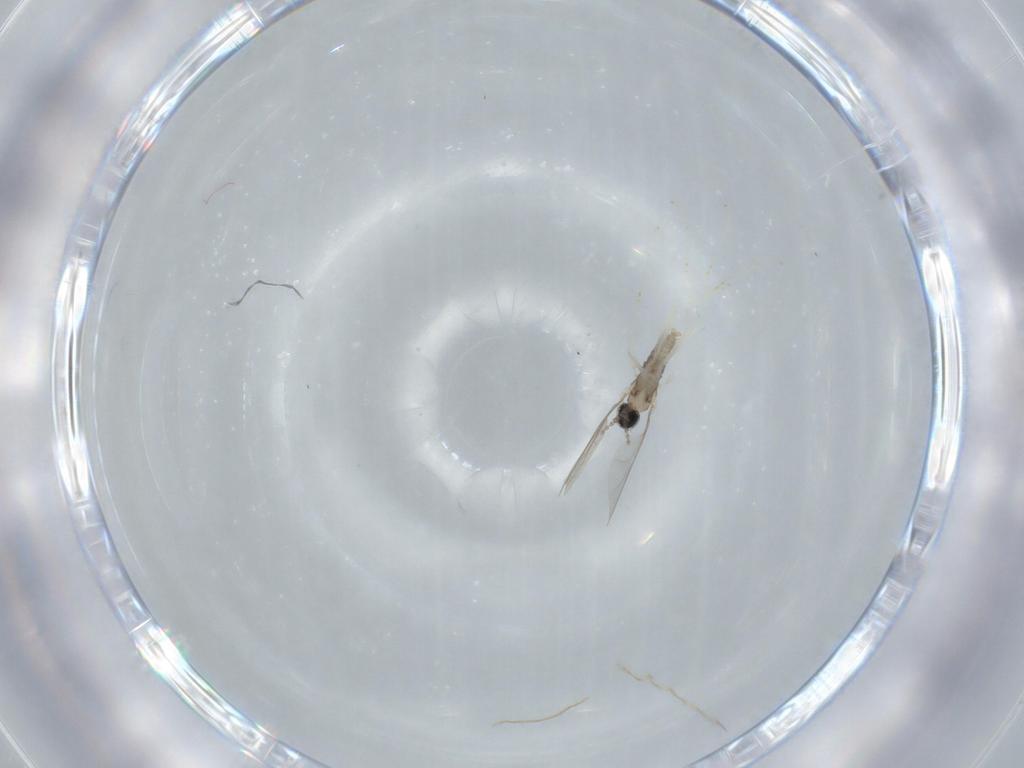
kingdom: Animalia
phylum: Arthropoda
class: Insecta
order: Diptera
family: Cecidomyiidae
